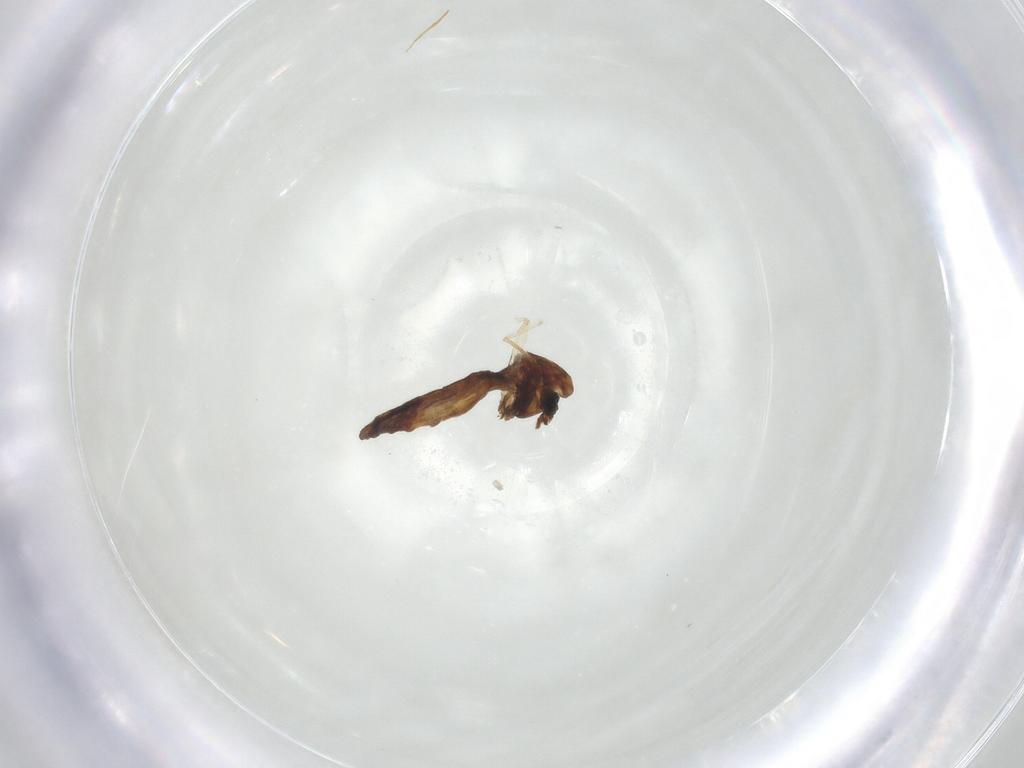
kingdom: Animalia
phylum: Arthropoda
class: Insecta
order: Diptera
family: Chironomidae
